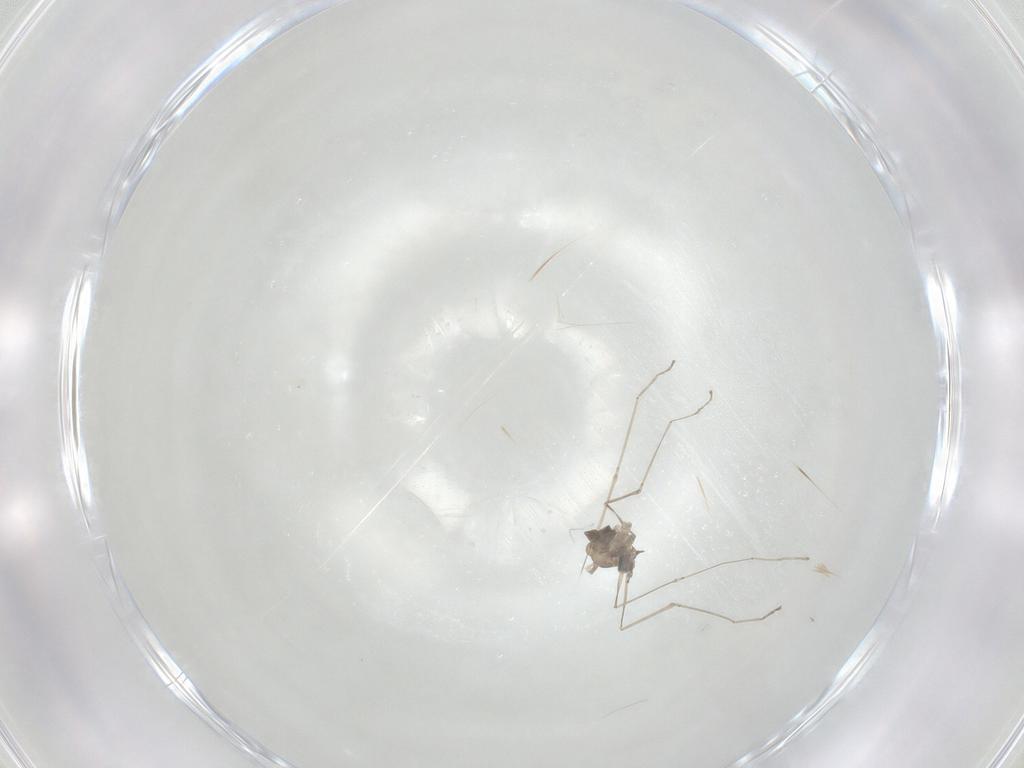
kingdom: Animalia
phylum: Arthropoda
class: Insecta
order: Diptera
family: Cecidomyiidae
